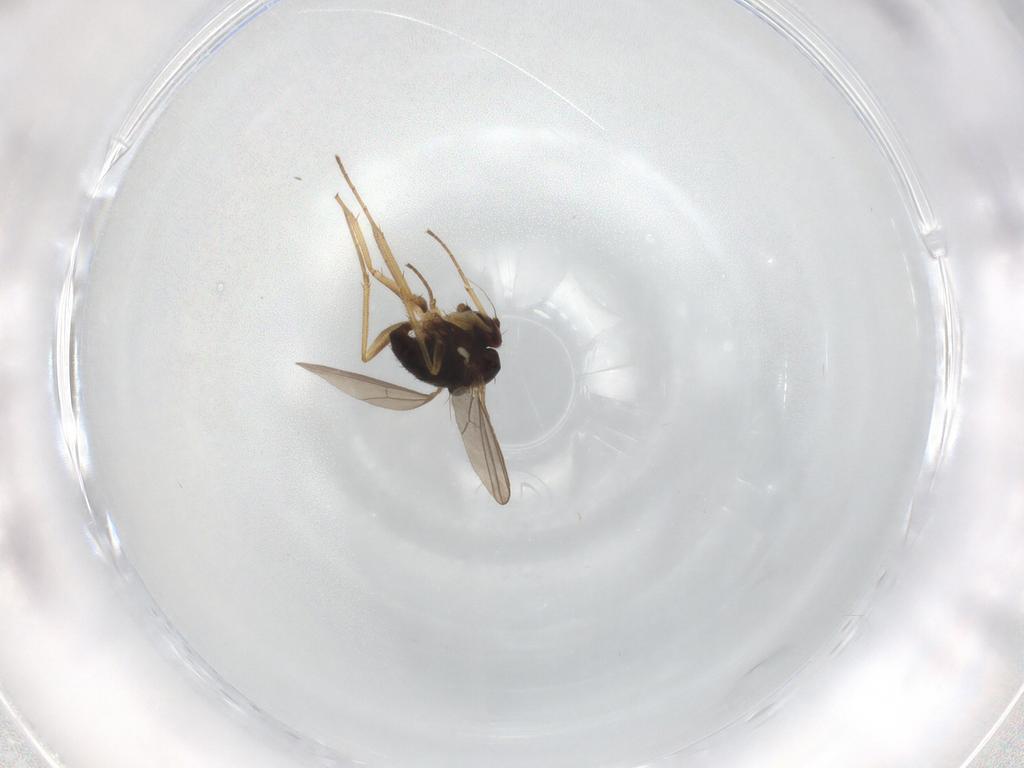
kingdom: Animalia
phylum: Arthropoda
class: Insecta
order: Diptera
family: Dolichopodidae
